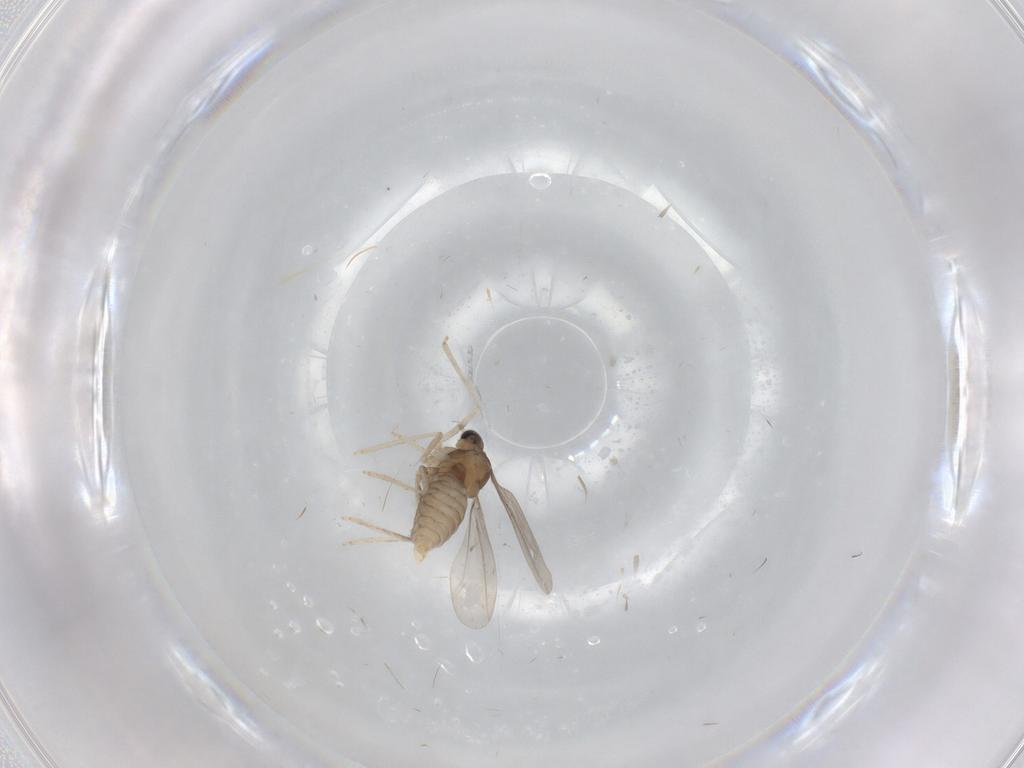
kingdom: Animalia
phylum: Arthropoda
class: Insecta
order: Diptera
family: Cecidomyiidae
